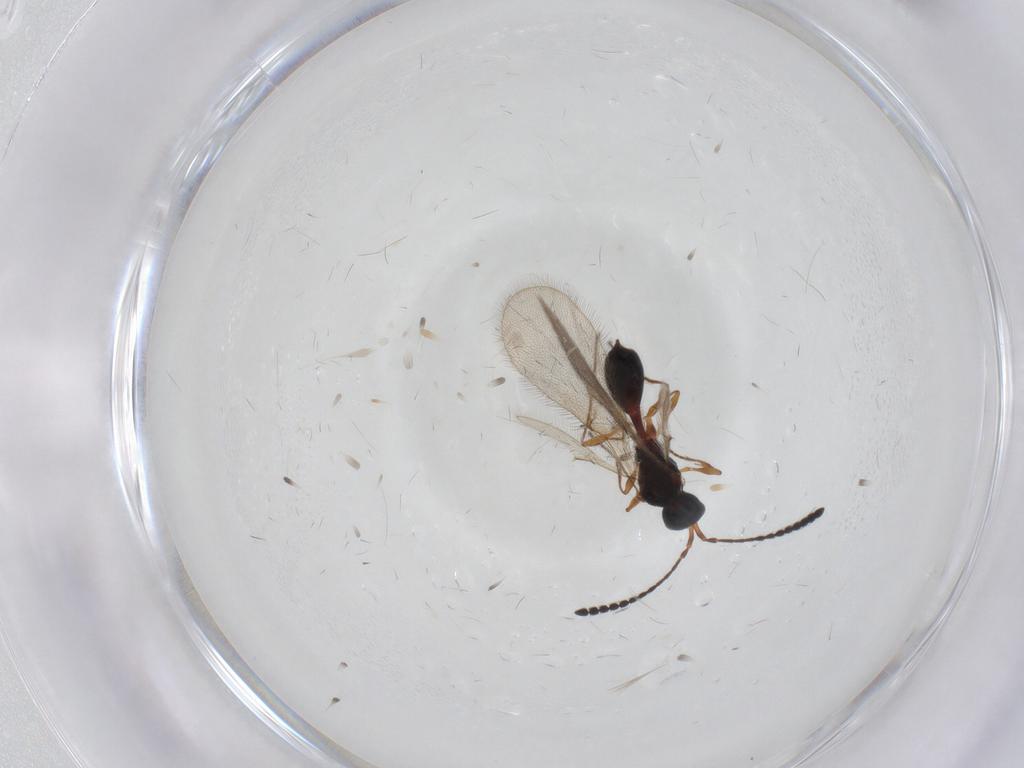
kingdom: Animalia
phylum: Arthropoda
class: Insecta
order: Hymenoptera
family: Diapriidae
